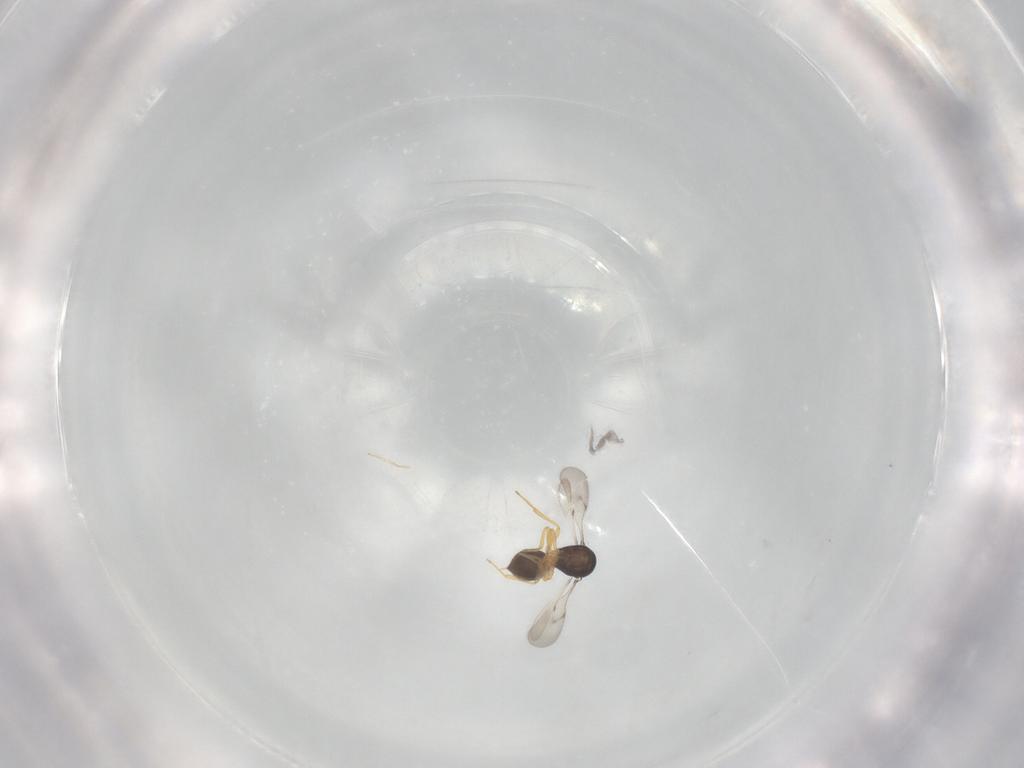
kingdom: Animalia
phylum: Arthropoda
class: Insecta
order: Hymenoptera
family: Scelionidae
